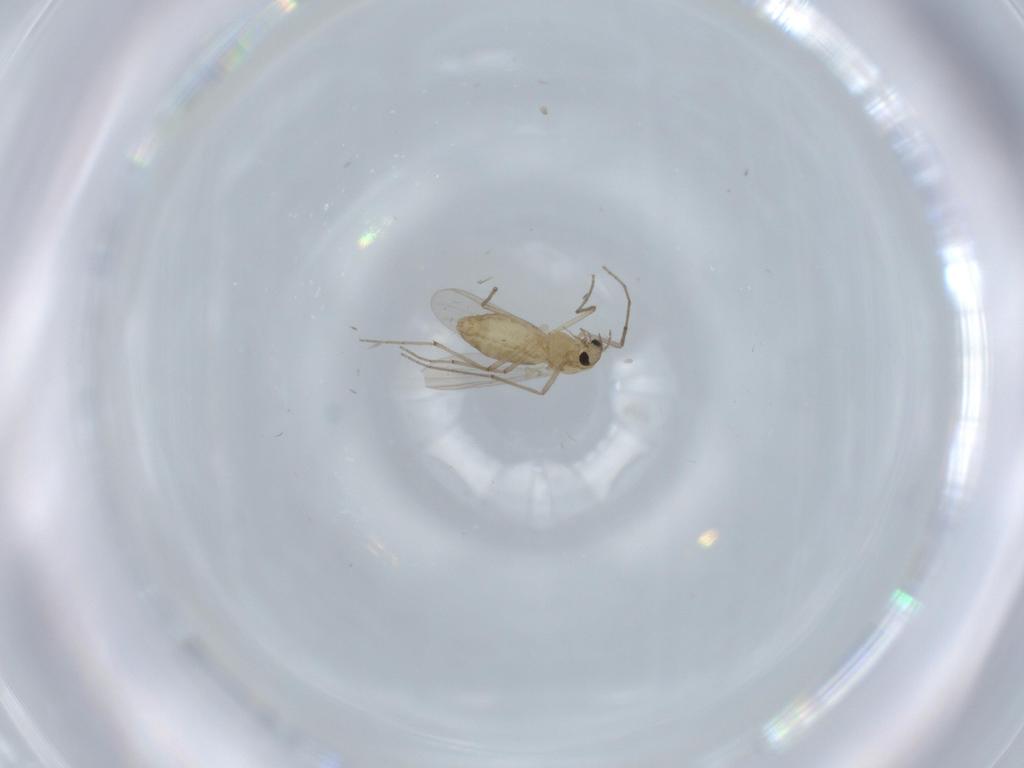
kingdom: Animalia
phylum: Arthropoda
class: Insecta
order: Diptera
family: Chironomidae
